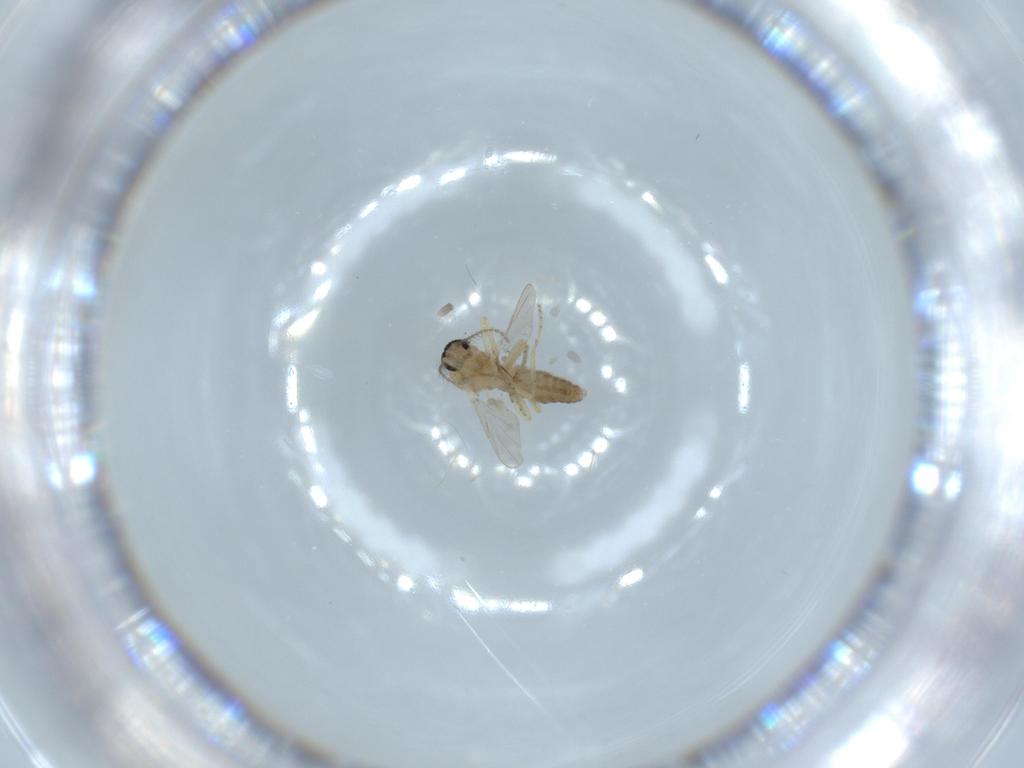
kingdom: Animalia
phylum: Arthropoda
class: Insecta
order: Diptera
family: Ceratopogonidae
